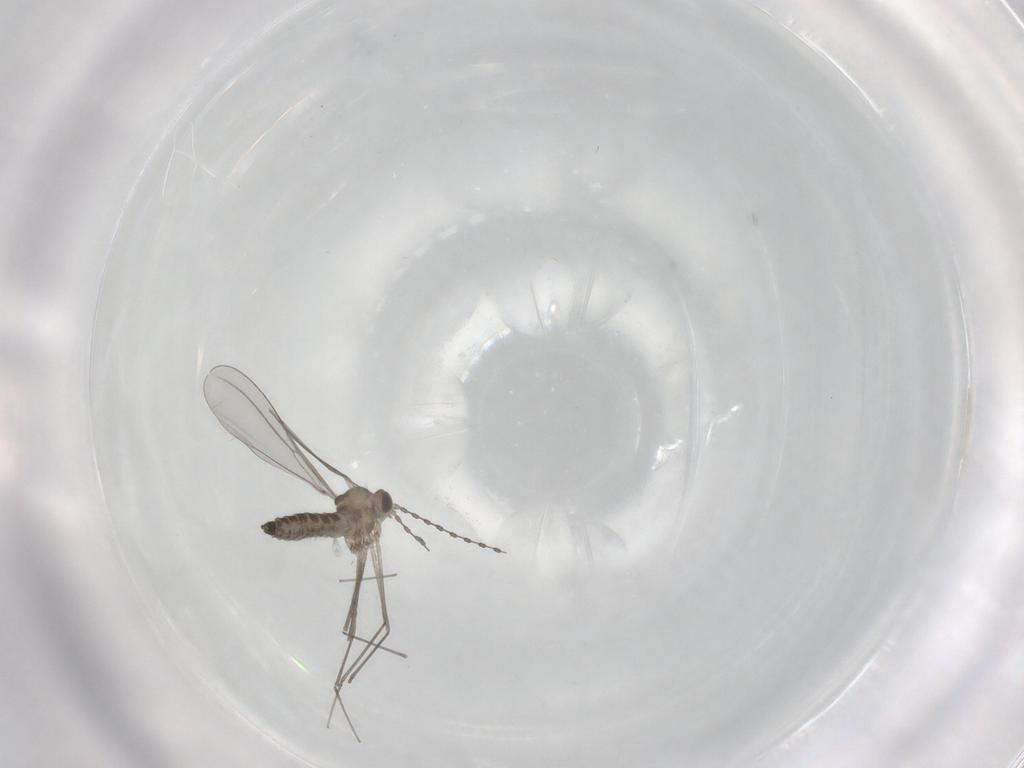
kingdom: Animalia
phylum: Arthropoda
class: Insecta
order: Diptera
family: Cecidomyiidae
